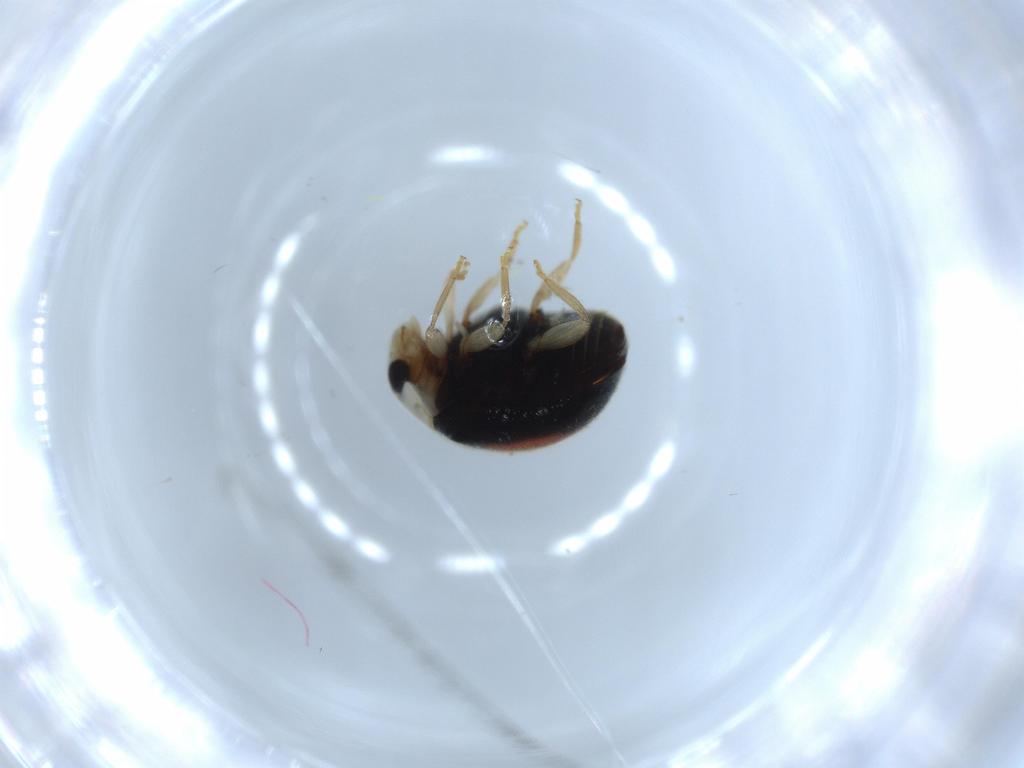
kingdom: Animalia
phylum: Arthropoda
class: Insecta
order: Coleoptera
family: Coccinellidae
